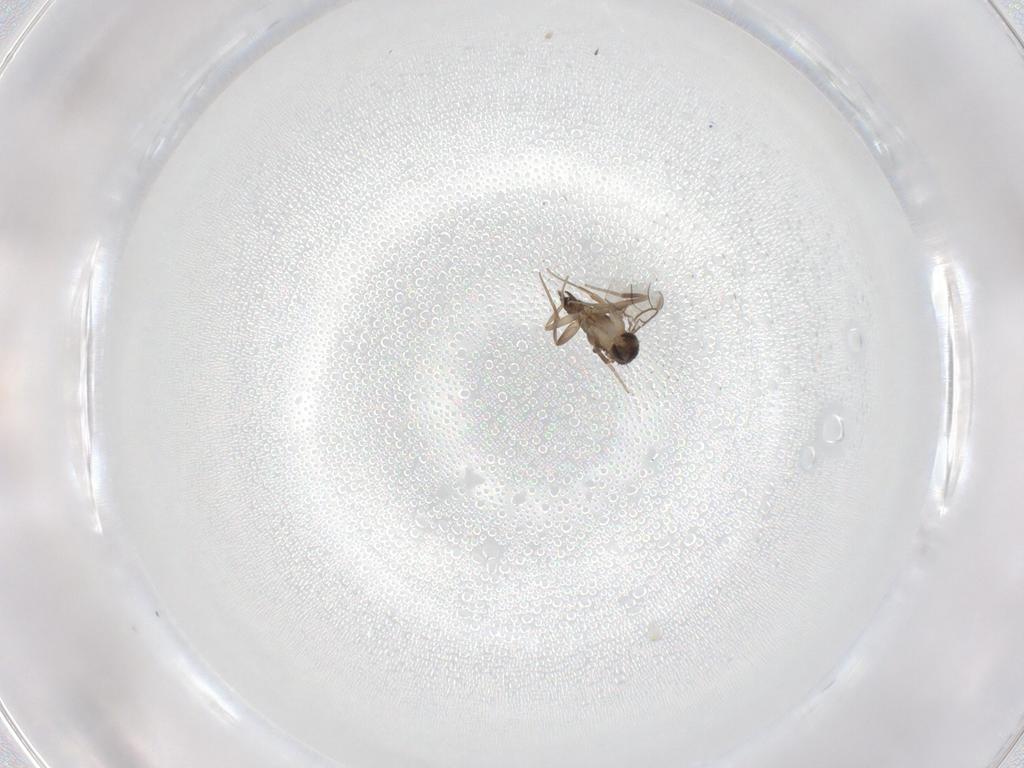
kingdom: Animalia
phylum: Arthropoda
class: Insecta
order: Diptera
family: Phoridae
